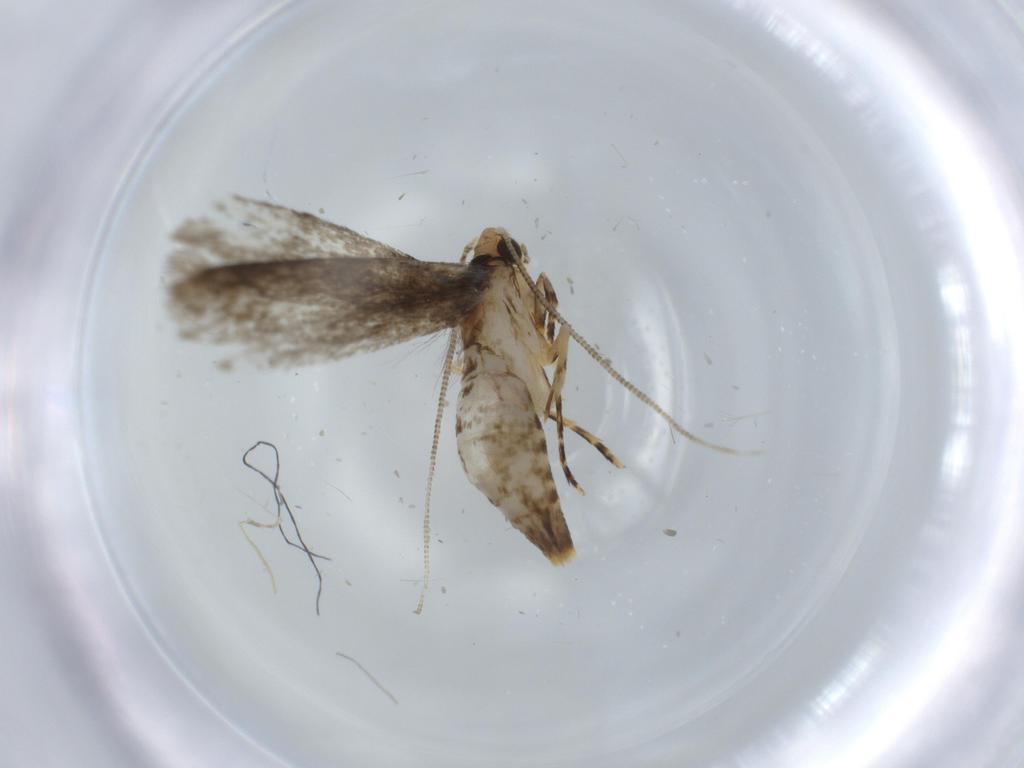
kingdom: Animalia
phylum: Arthropoda
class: Insecta
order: Lepidoptera
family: Meessiidae
